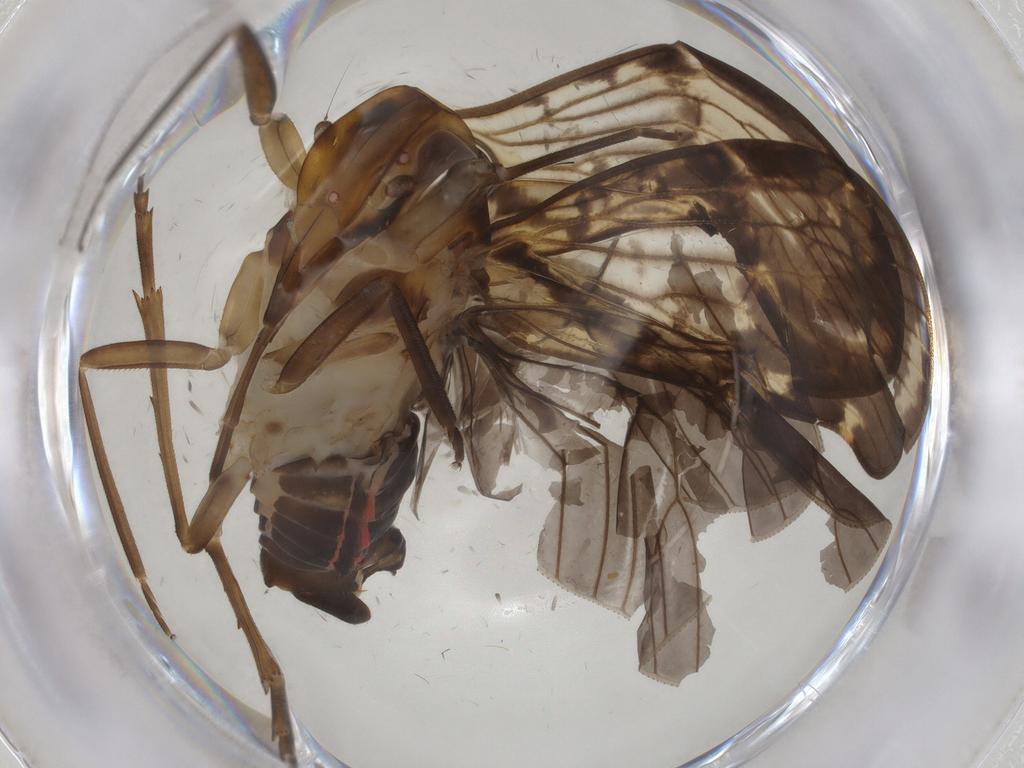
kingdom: Animalia
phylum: Arthropoda
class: Insecta
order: Hemiptera
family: Cixiidae
